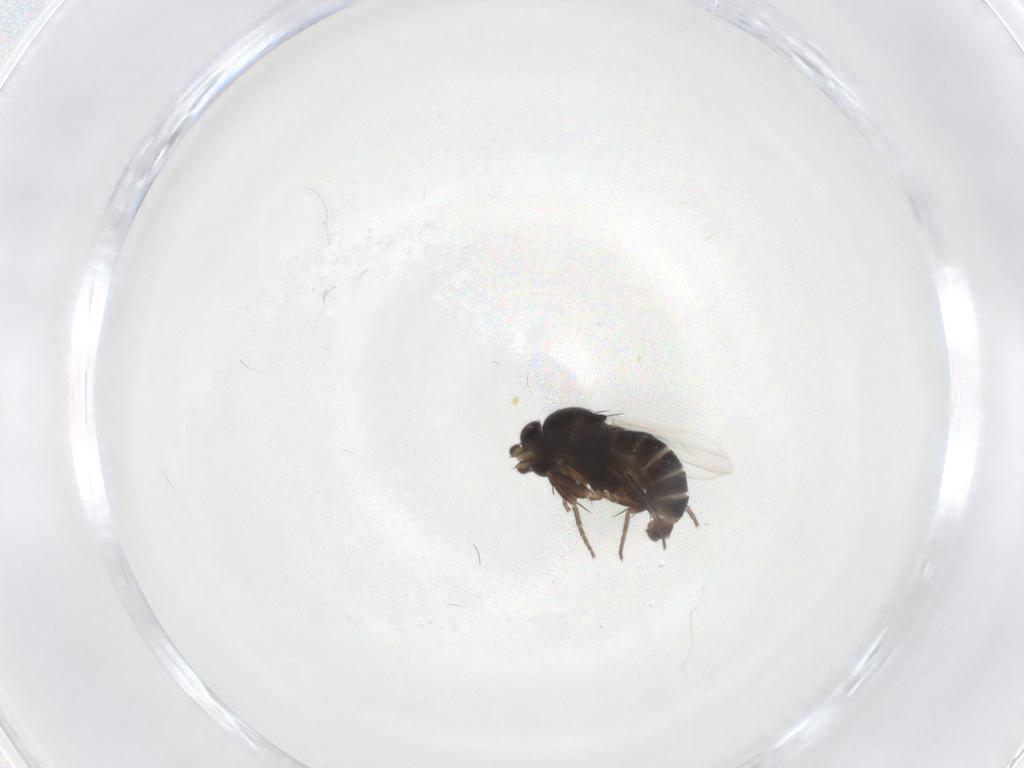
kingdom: Animalia
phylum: Arthropoda
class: Insecta
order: Diptera
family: Phoridae
